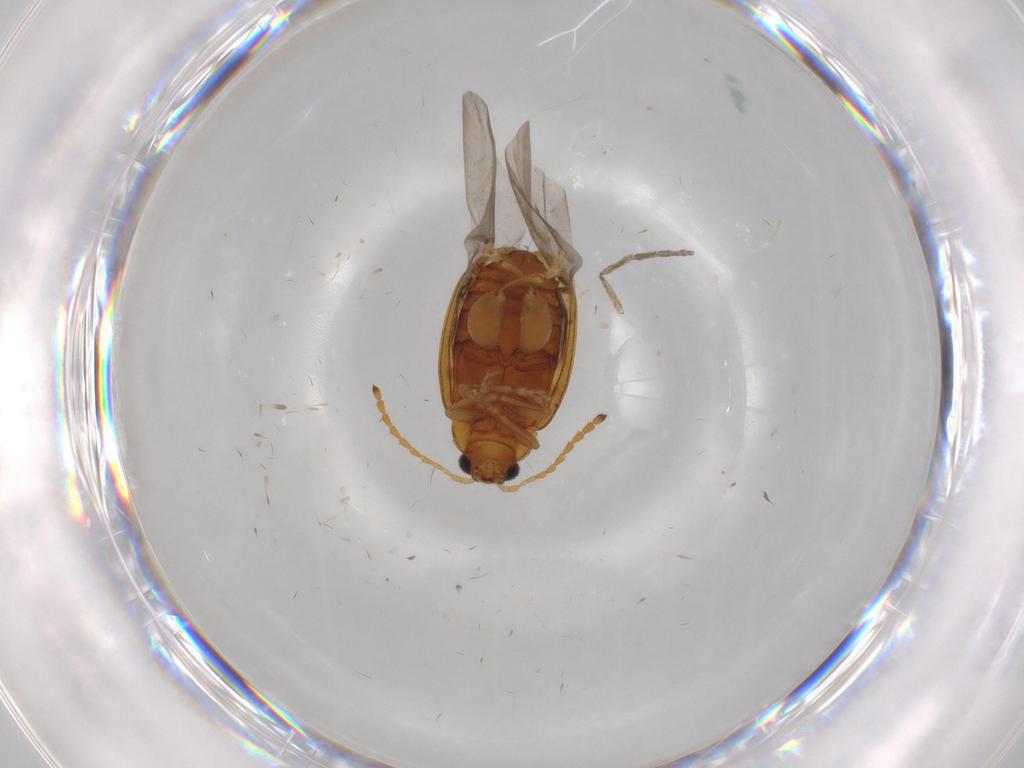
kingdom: Animalia
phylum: Arthropoda
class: Insecta
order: Coleoptera
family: Chrysomelidae
